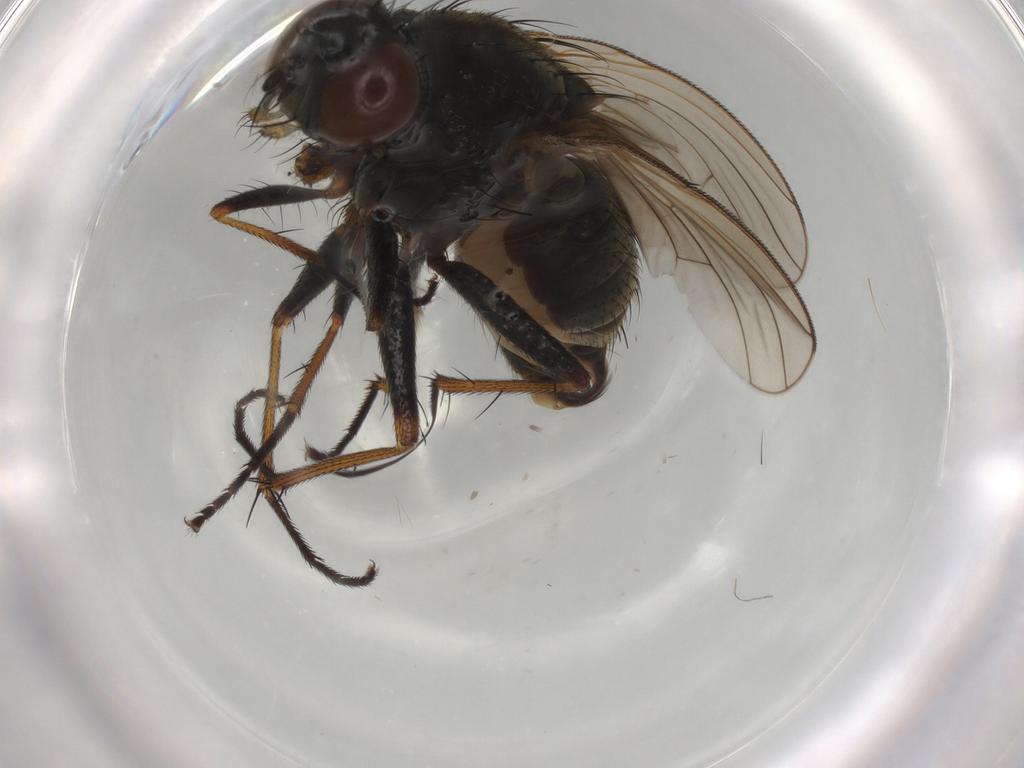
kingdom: Animalia
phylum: Arthropoda
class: Insecta
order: Diptera
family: Muscidae
